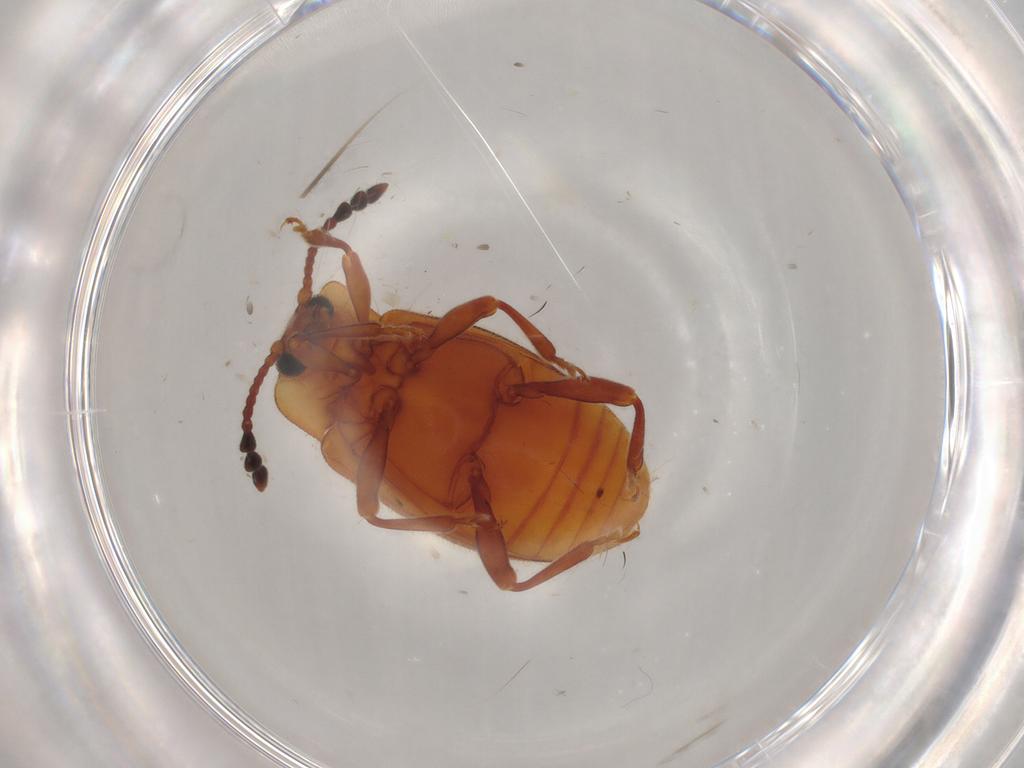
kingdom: Animalia
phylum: Arthropoda
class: Insecta
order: Coleoptera
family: Endomychidae
